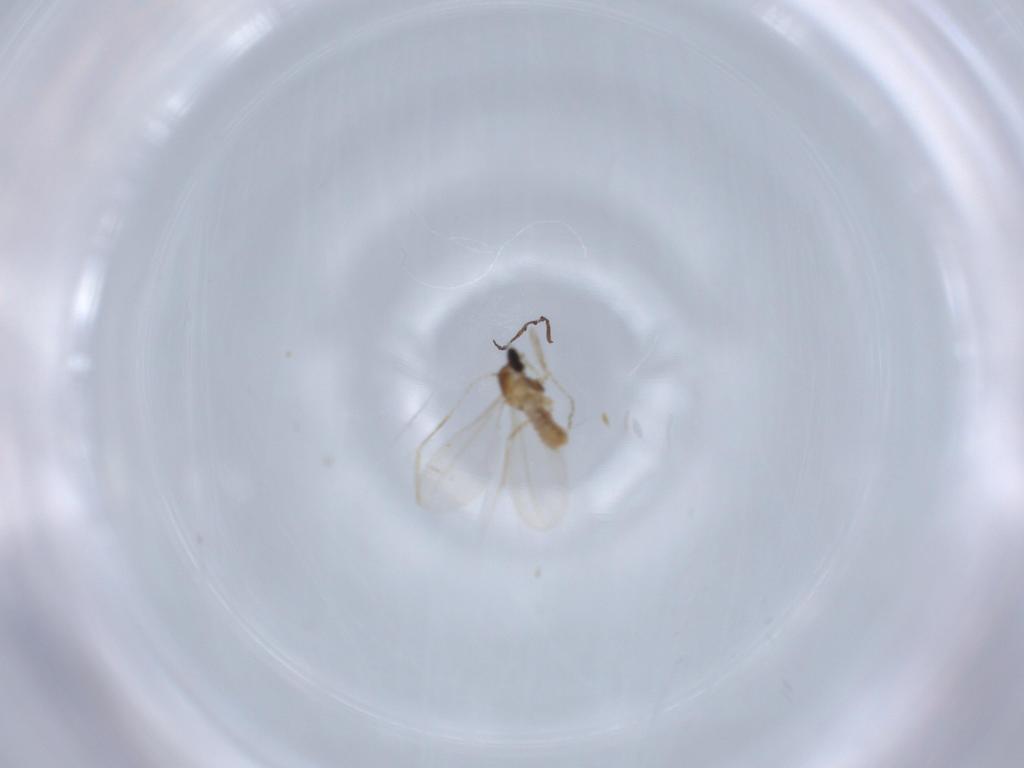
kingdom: Animalia
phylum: Arthropoda
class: Insecta
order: Diptera
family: Cecidomyiidae
